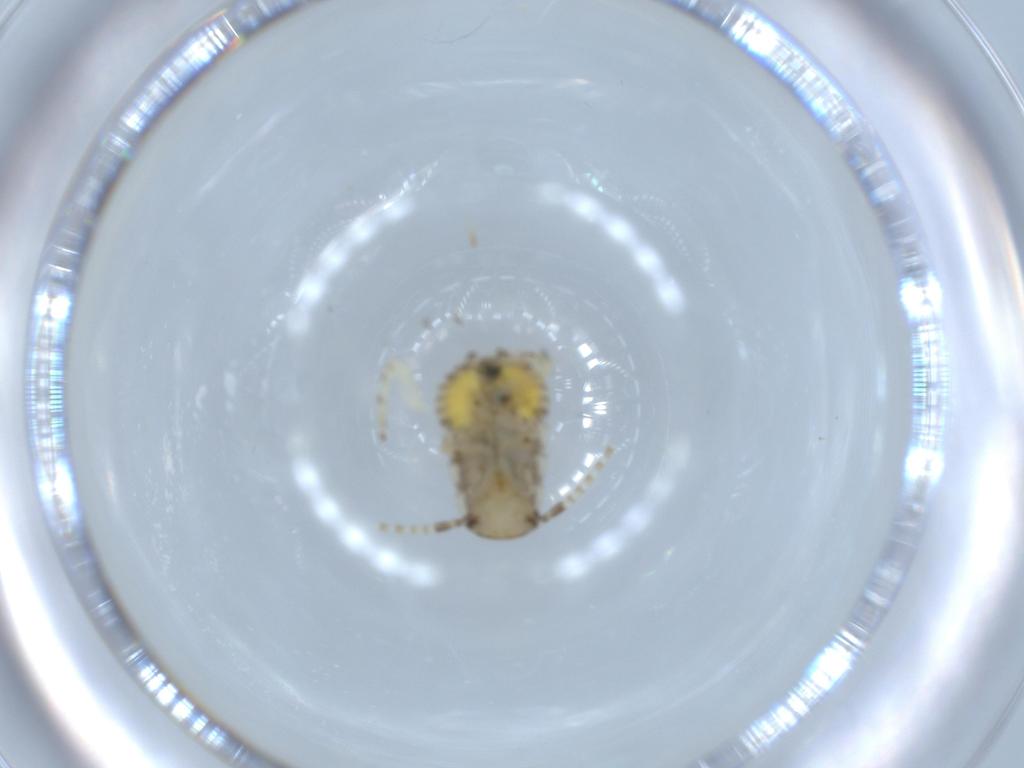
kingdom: Animalia
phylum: Arthropoda
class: Insecta
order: Blattodea
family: Ectobiidae
